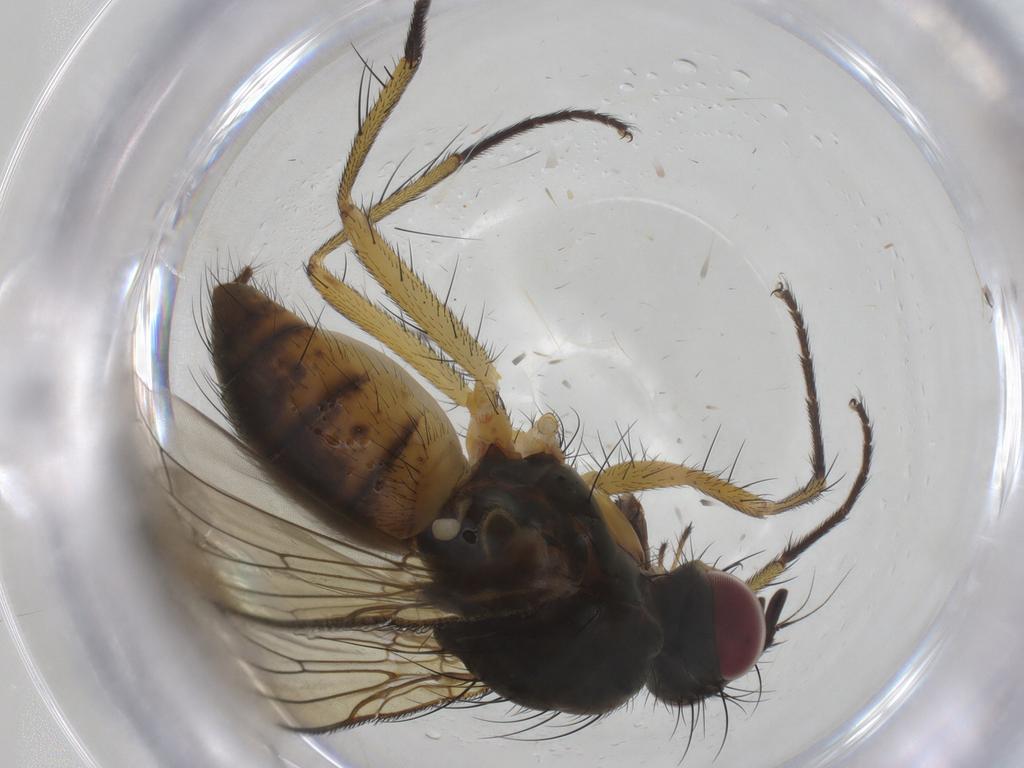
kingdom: Animalia
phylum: Arthropoda
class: Insecta
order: Diptera
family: Muscidae
